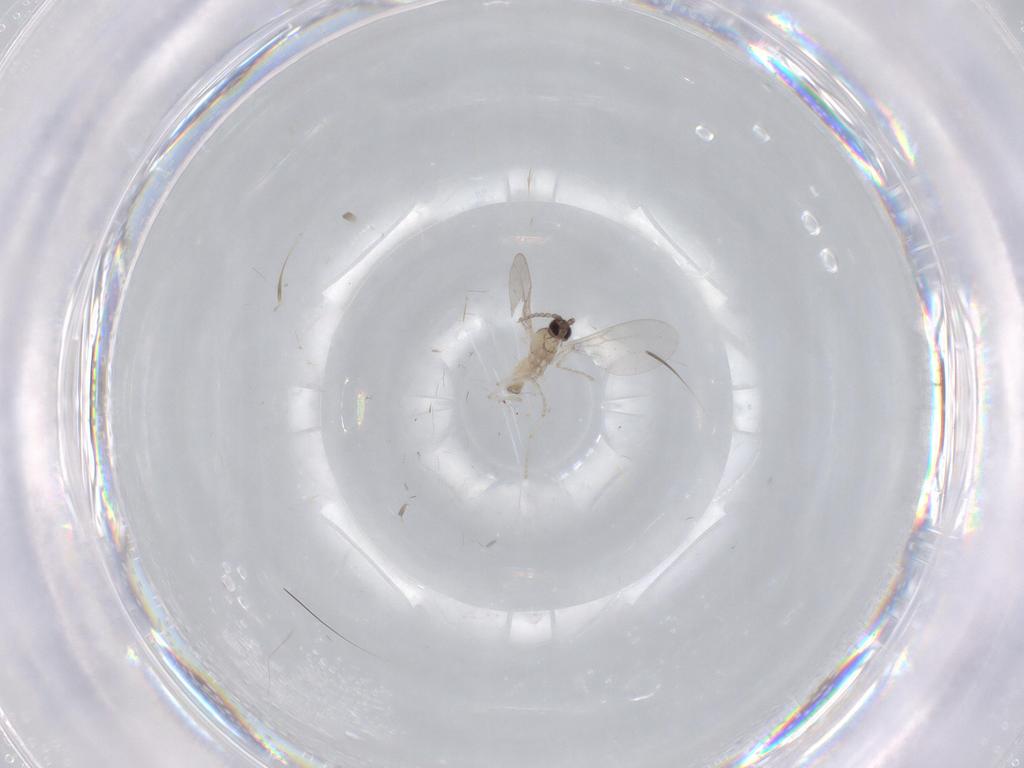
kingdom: Animalia
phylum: Arthropoda
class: Insecta
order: Diptera
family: Cecidomyiidae
